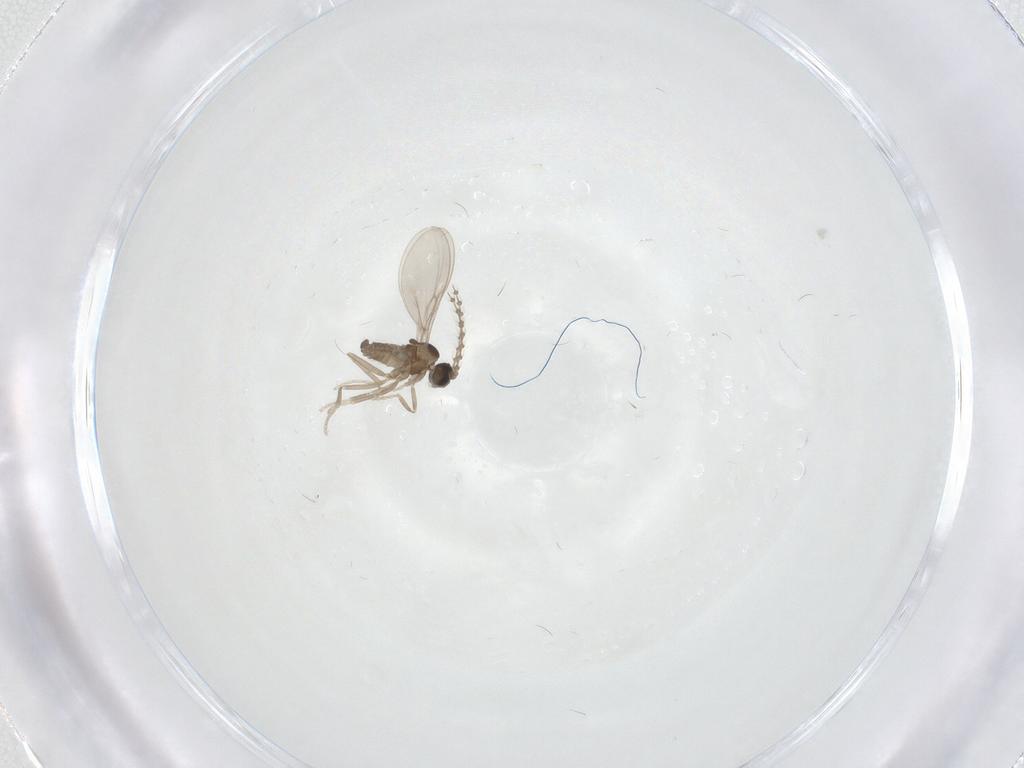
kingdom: Animalia
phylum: Arthropoda
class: Insecta
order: Diptera
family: Cecidomyiidae
